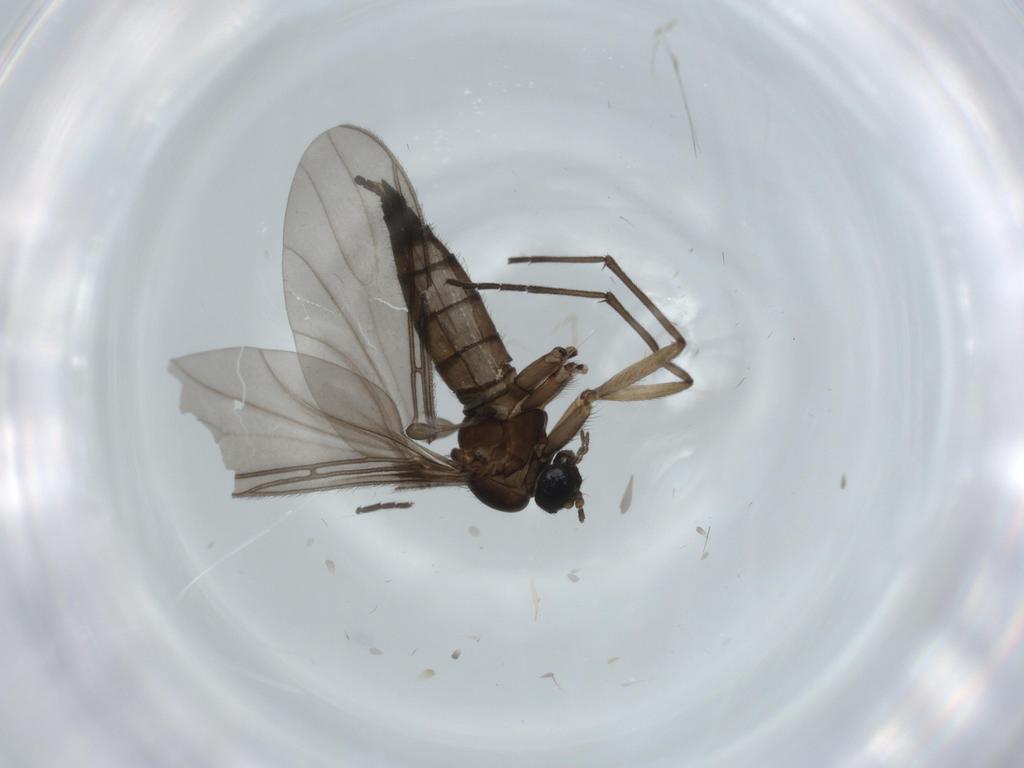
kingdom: Animalia
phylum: Arthropoda
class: Insecta
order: Diptera
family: Sciaridae
